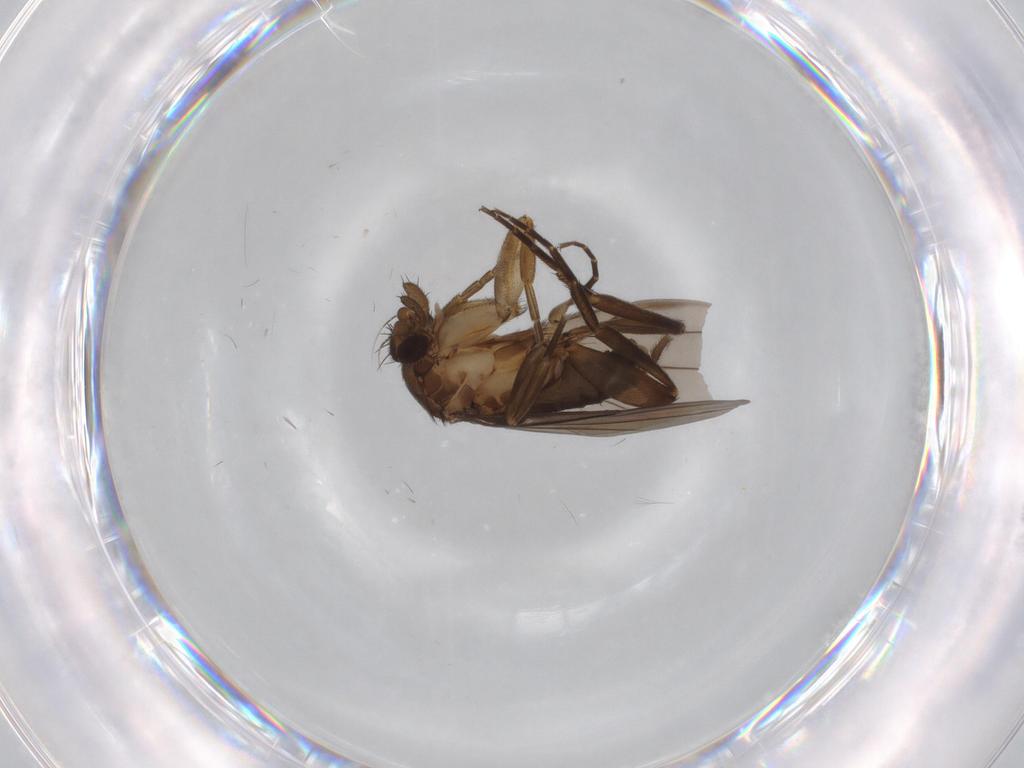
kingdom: Animalia
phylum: Arthropoda
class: Insecta
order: Diptera
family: Phoridae
